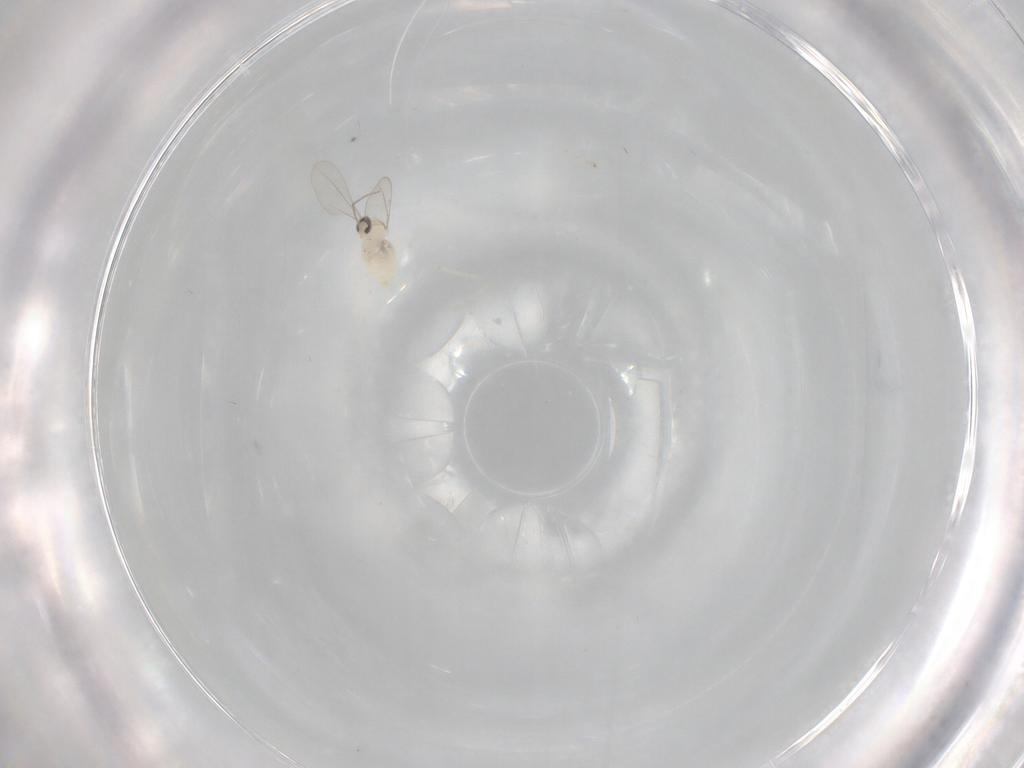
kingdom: Animalia
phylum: Arthropoda
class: Insecta
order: Diptera
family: Cecidomyiidae
